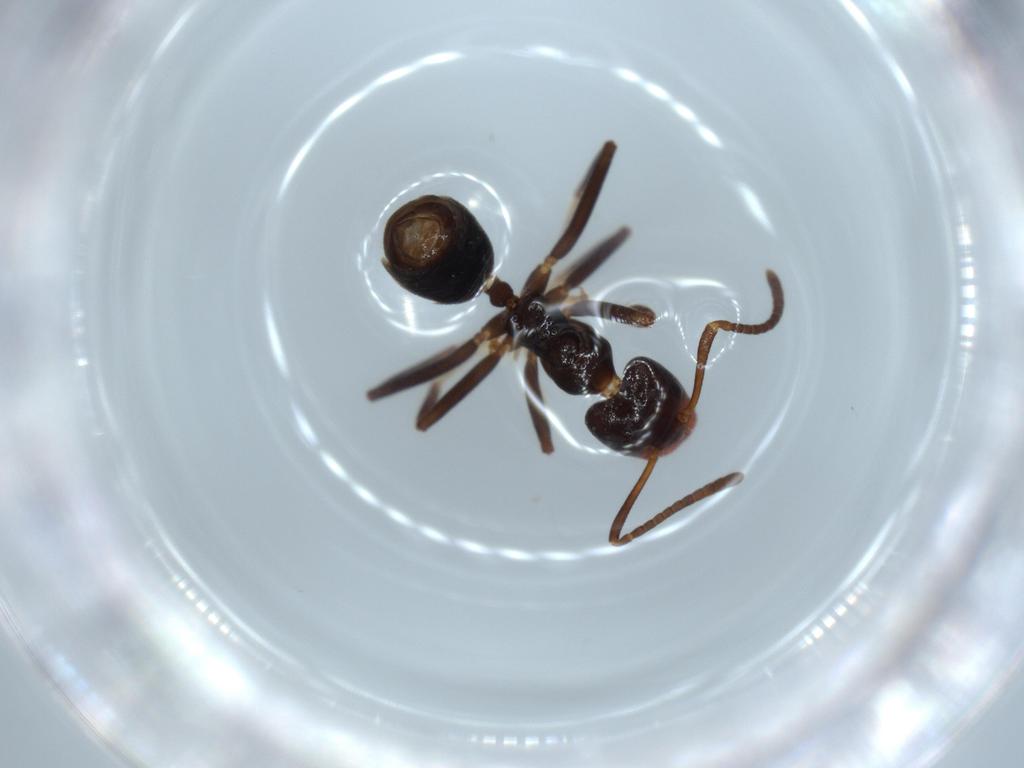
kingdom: Animalia
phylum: Arthropoda
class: Insecta
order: Hymenoptera
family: Formicidae
